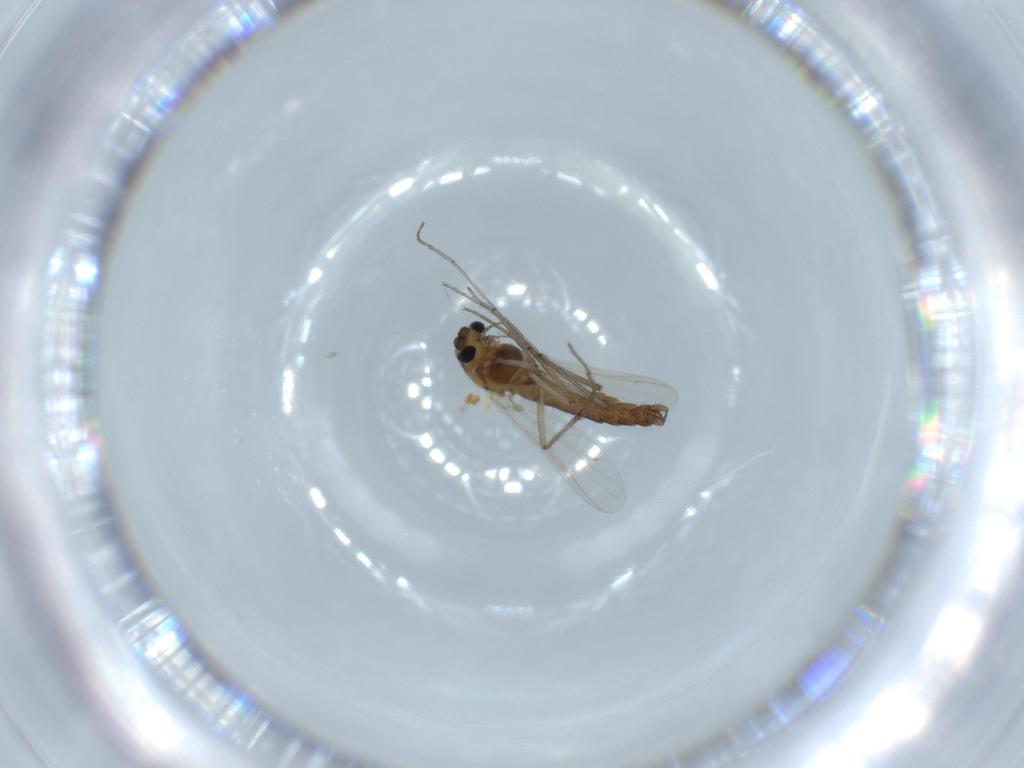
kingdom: Animalia
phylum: Arthropoda
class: Insecta
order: Diptera
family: Chironomidae
